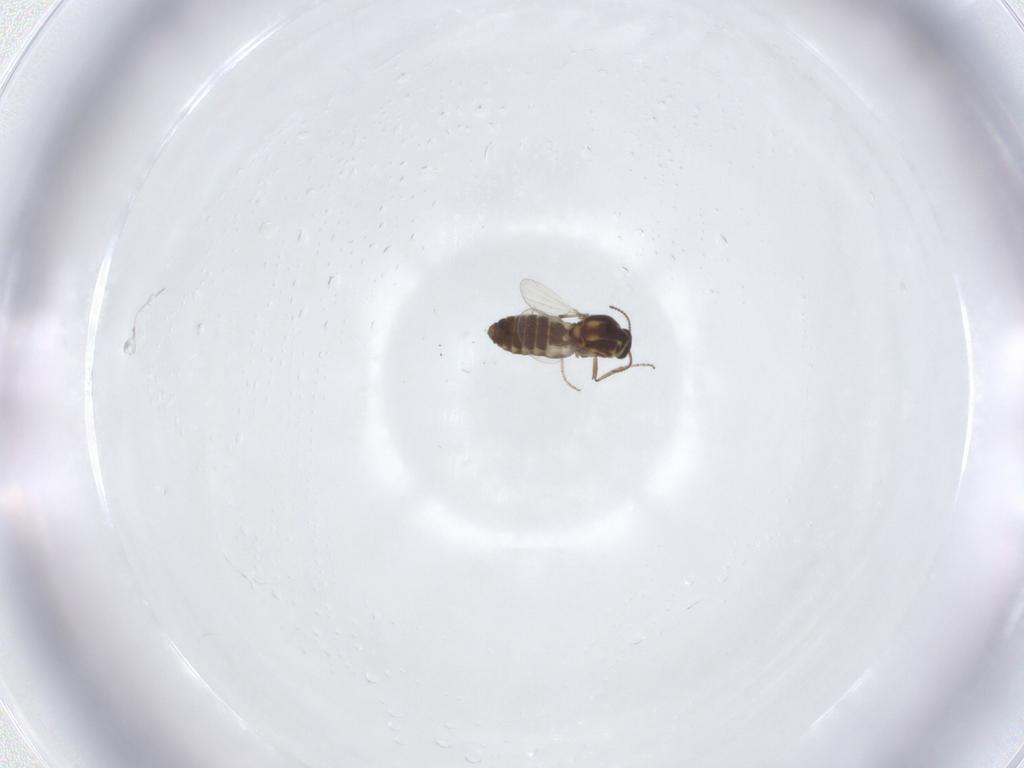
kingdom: Animalia
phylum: Arthropoda
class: Insecta
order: Diptera
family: Ceratopogonidae
